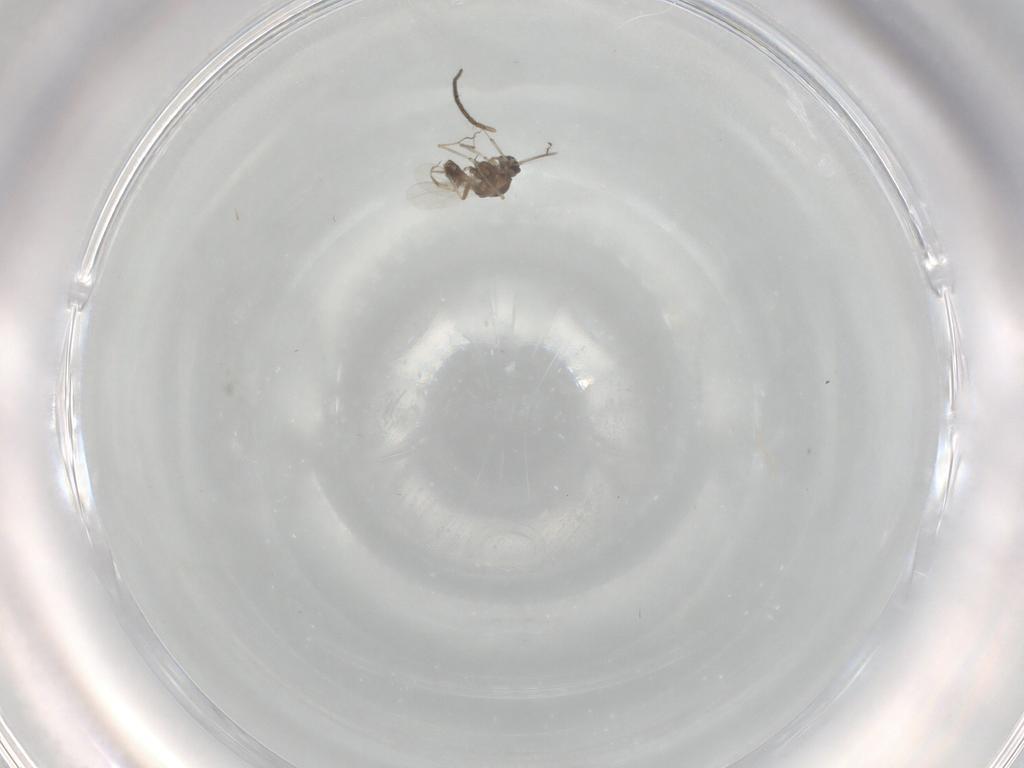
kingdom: Animalia
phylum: Arthropoda
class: Insecta
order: Diptera
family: Ceratopogonidae
